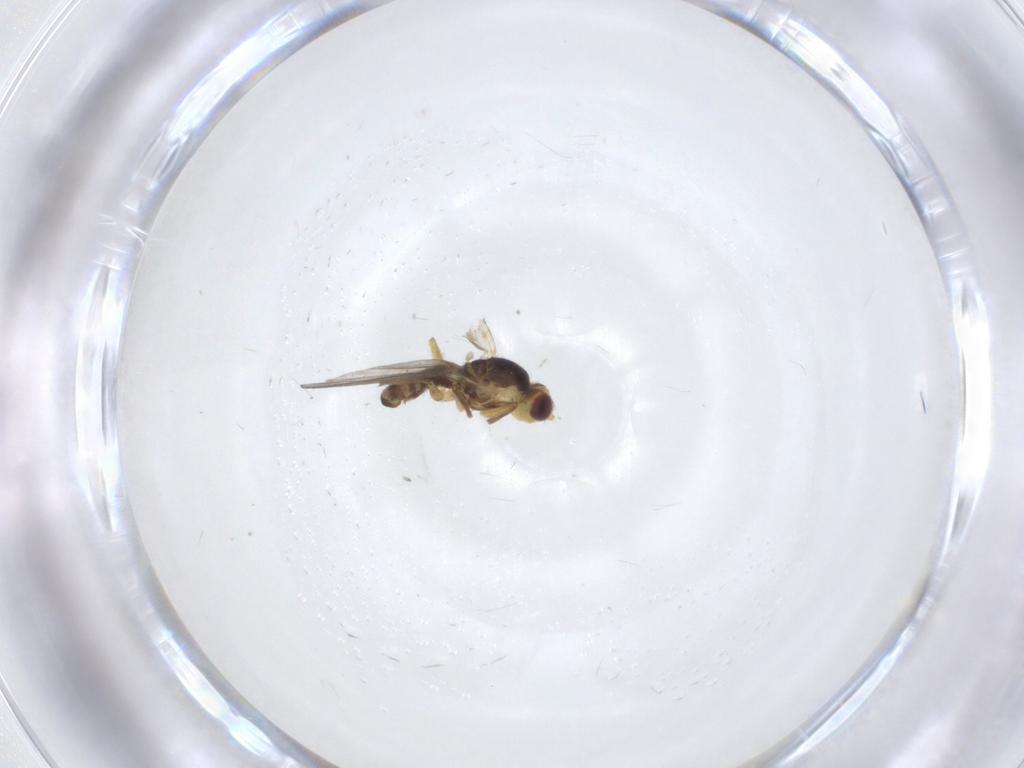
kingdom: Animalia
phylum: Arthropoda
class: Insecta
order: Diptera
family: Agromyzidae
